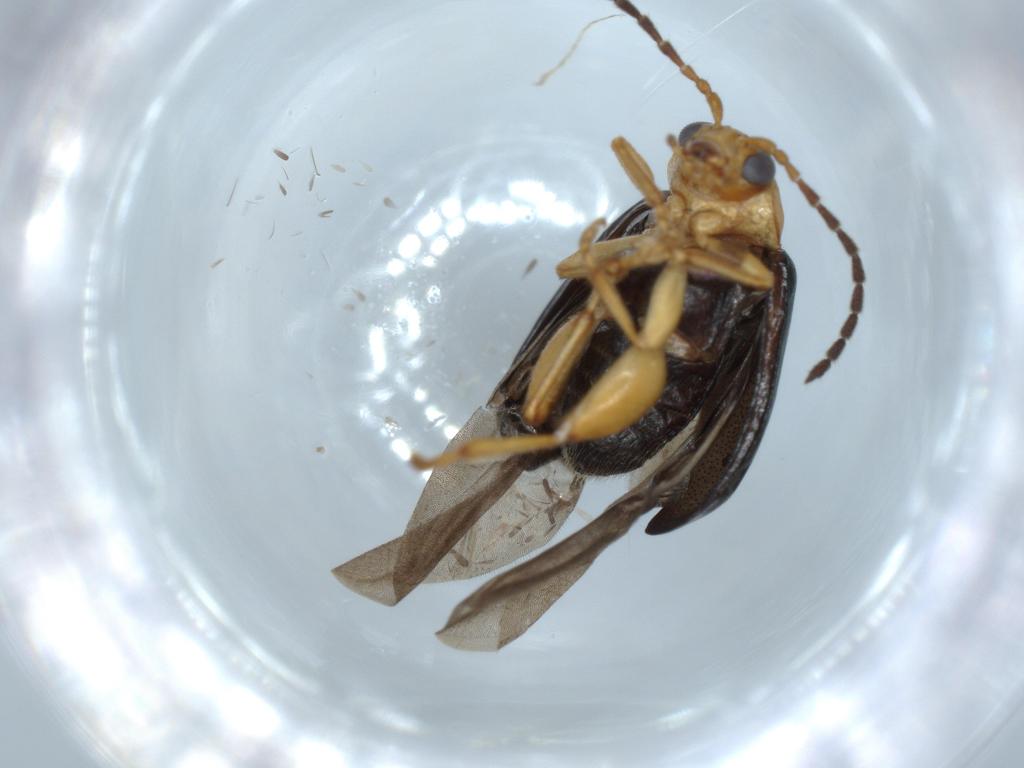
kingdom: Animalia
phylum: Arthropoda
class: Insecta
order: Coleoptera
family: Chrysomelidae
